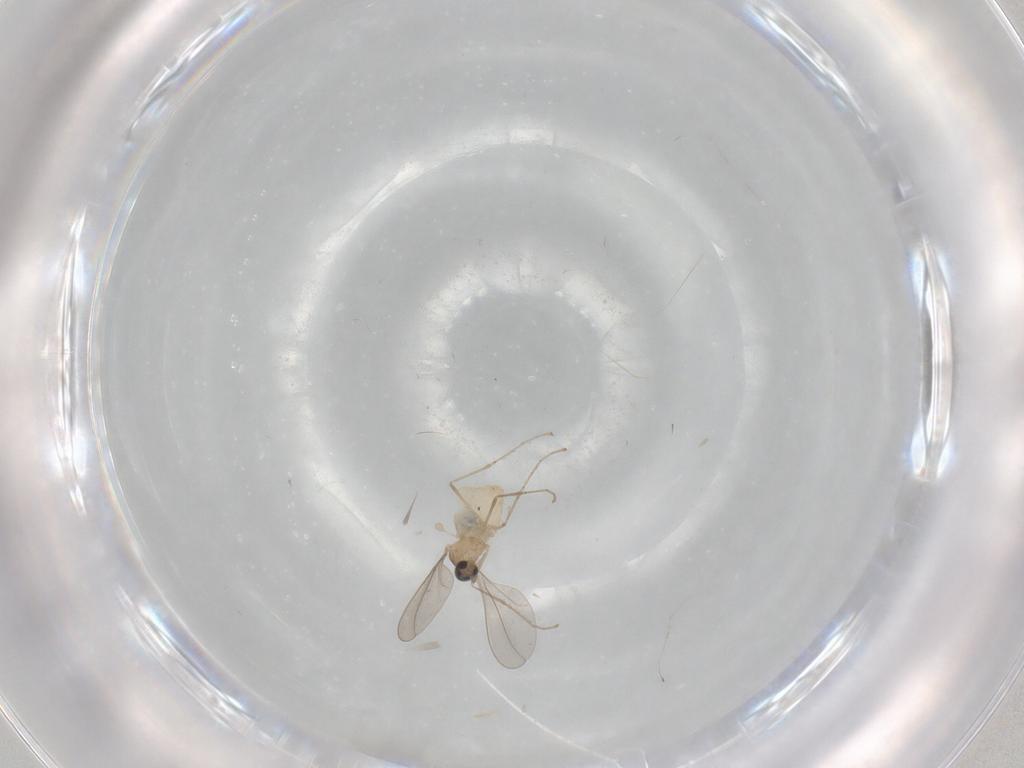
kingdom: Animalia
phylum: Arthropoda
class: Insecta
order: Diptera
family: Cecidomyiidae
